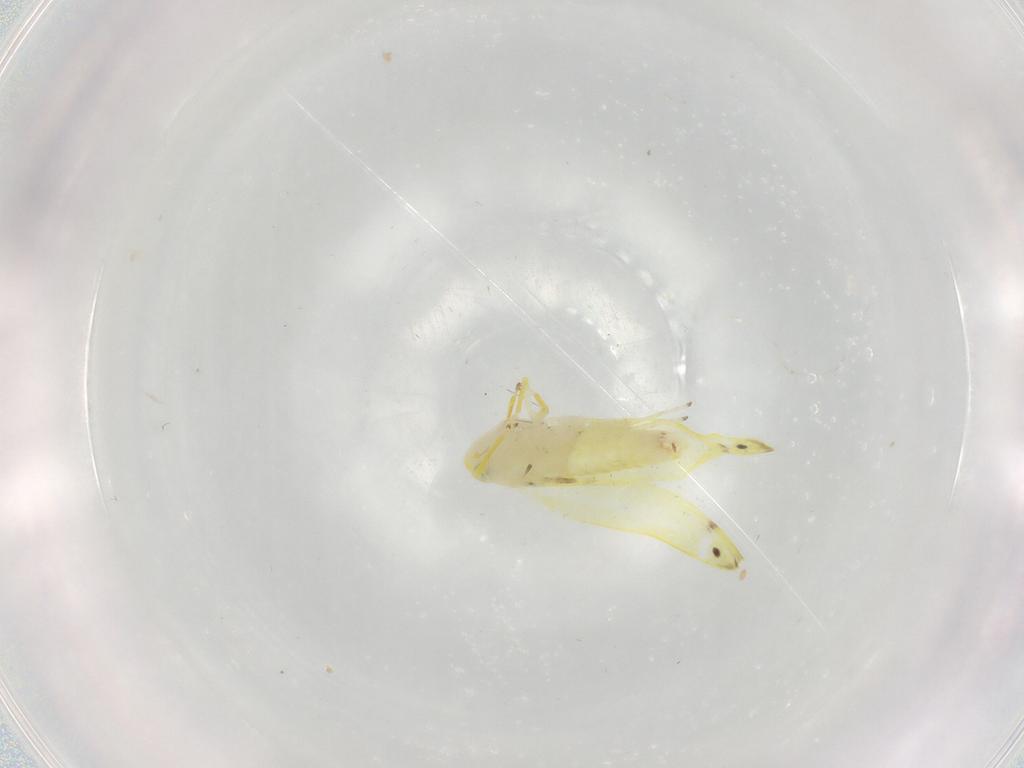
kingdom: Animalia
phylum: Arthropoda
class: Insecta
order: Hemiptera
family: Cicadellidae
